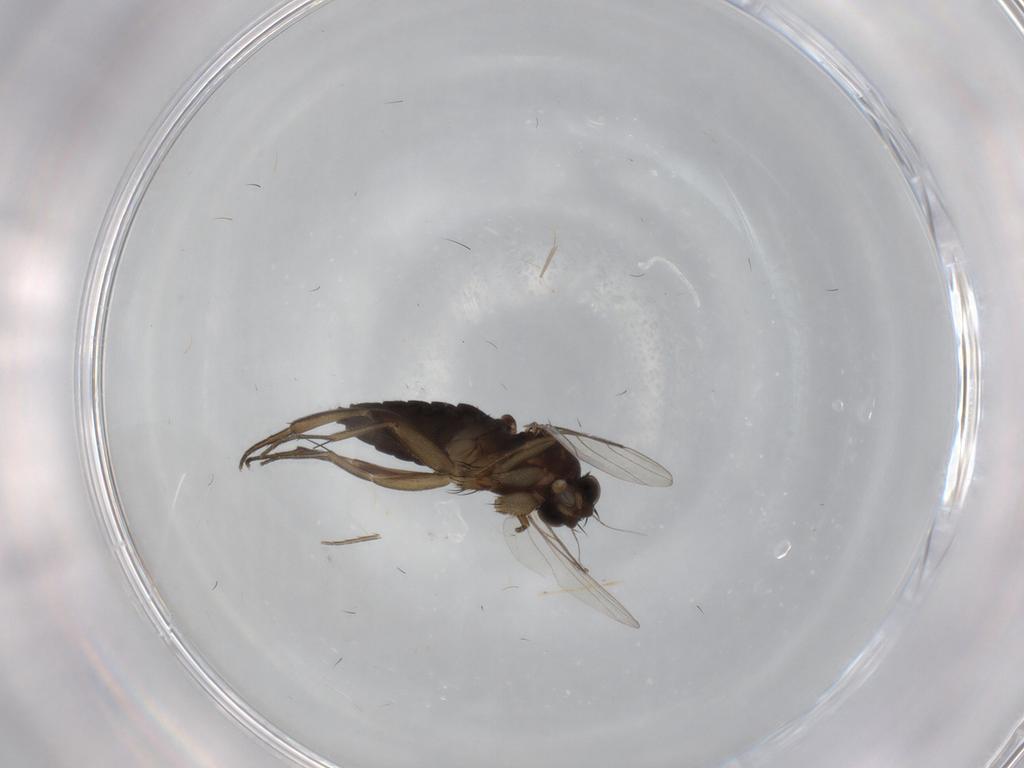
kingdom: Animalia
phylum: Arthropoda
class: Insecta
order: Diptera
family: Phoridae
